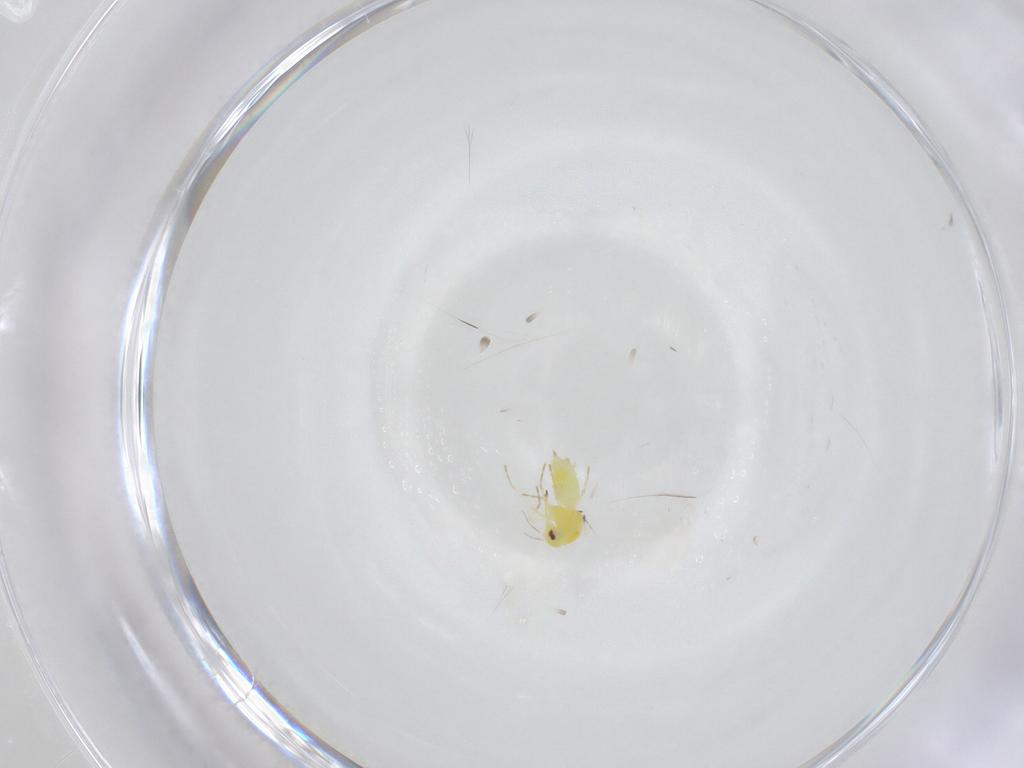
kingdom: Animalia
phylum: Arthropoda
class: Insecta
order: Hemiptera
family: Aleyrodidae
